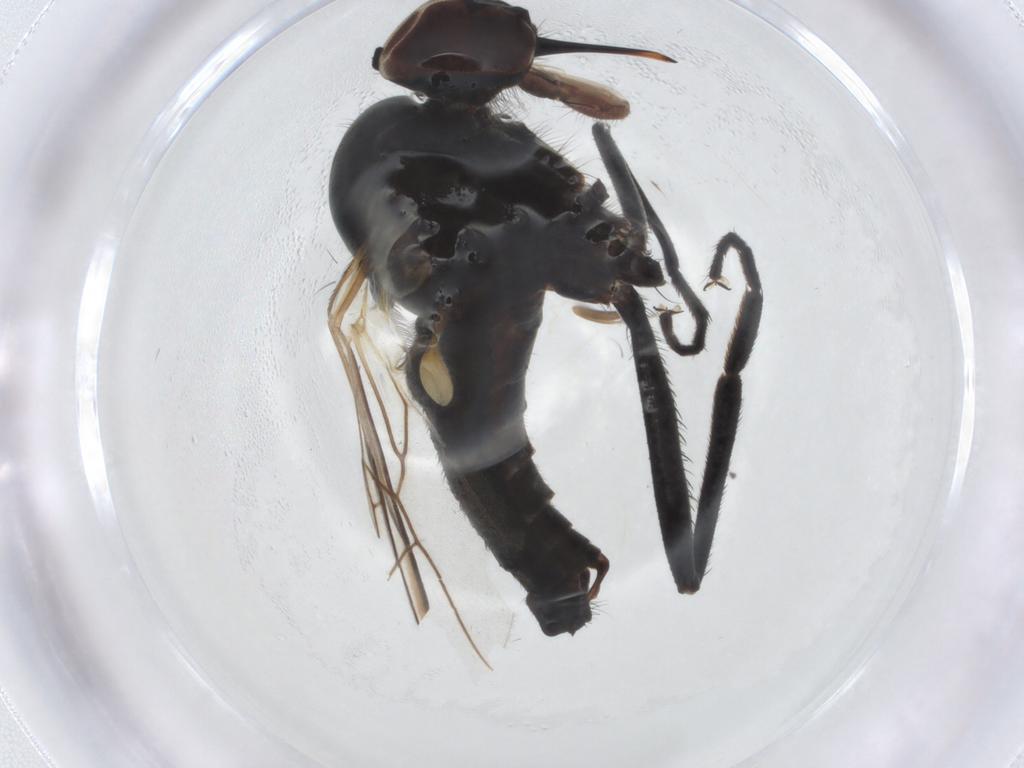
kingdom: Animalia
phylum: Arthropoda
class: Insecta
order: Diptera
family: Empididae
